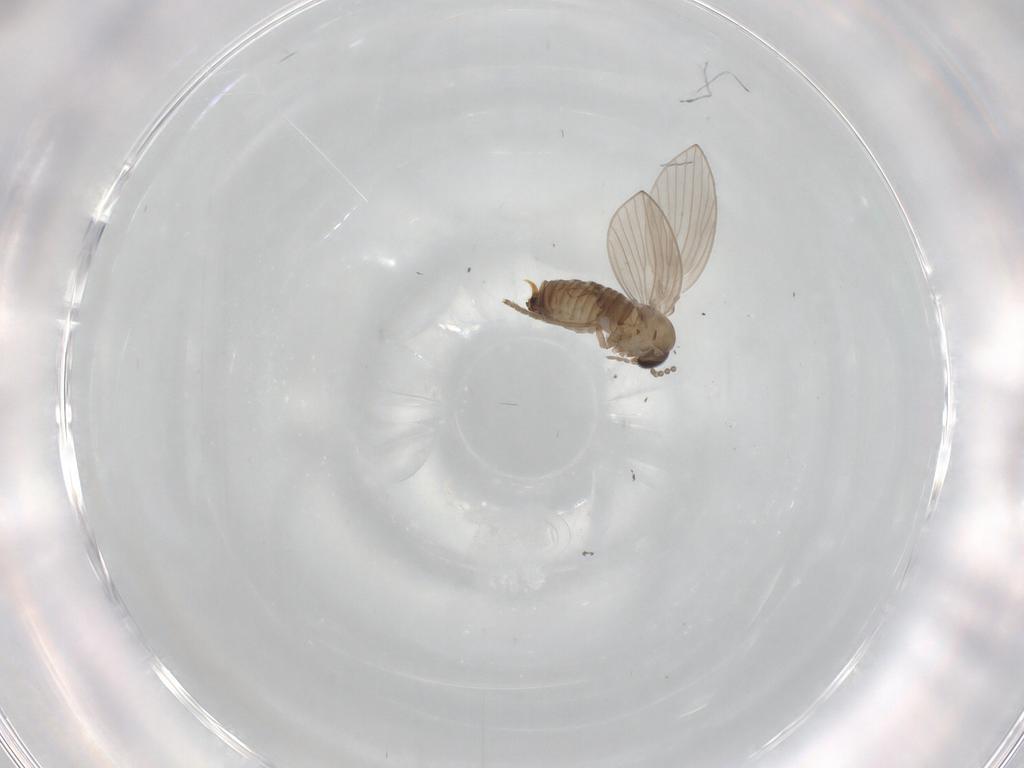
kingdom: Animalia
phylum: Arthropoda
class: Insecta
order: Diptera
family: Psychodidae
